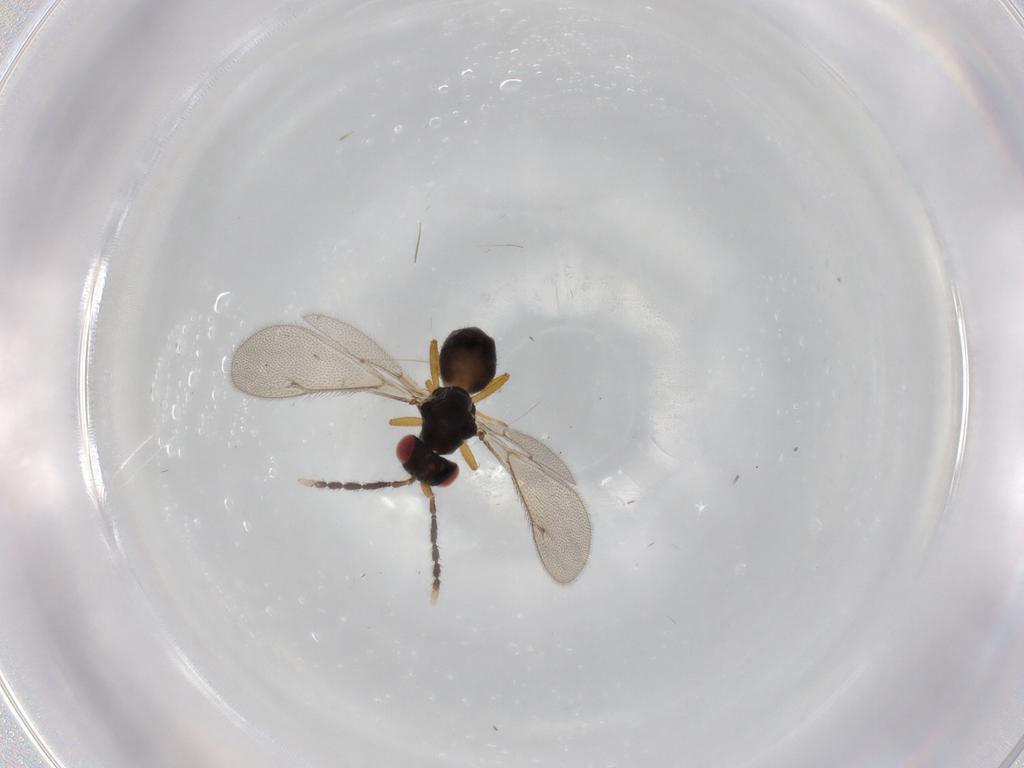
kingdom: Animalia
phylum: Arthropoda
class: Insecta
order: Hymenoptera
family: Eulophidae
